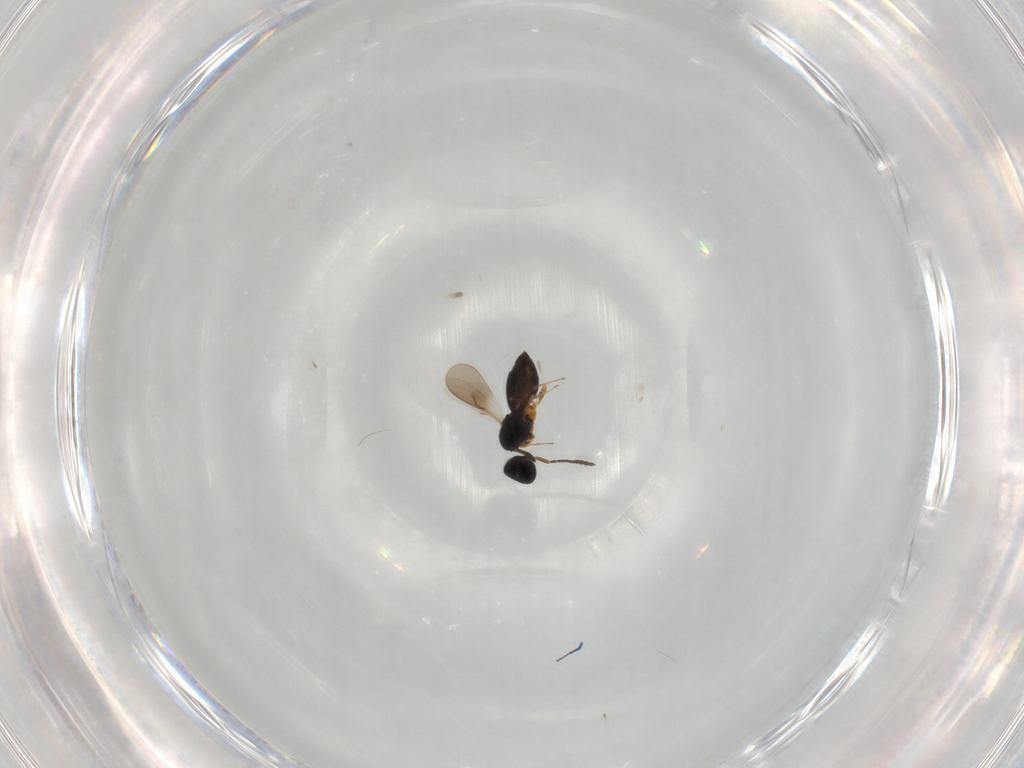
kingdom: Animalia
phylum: Arthropoda
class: Insecta
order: Hymenoptera
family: Scelionidae
